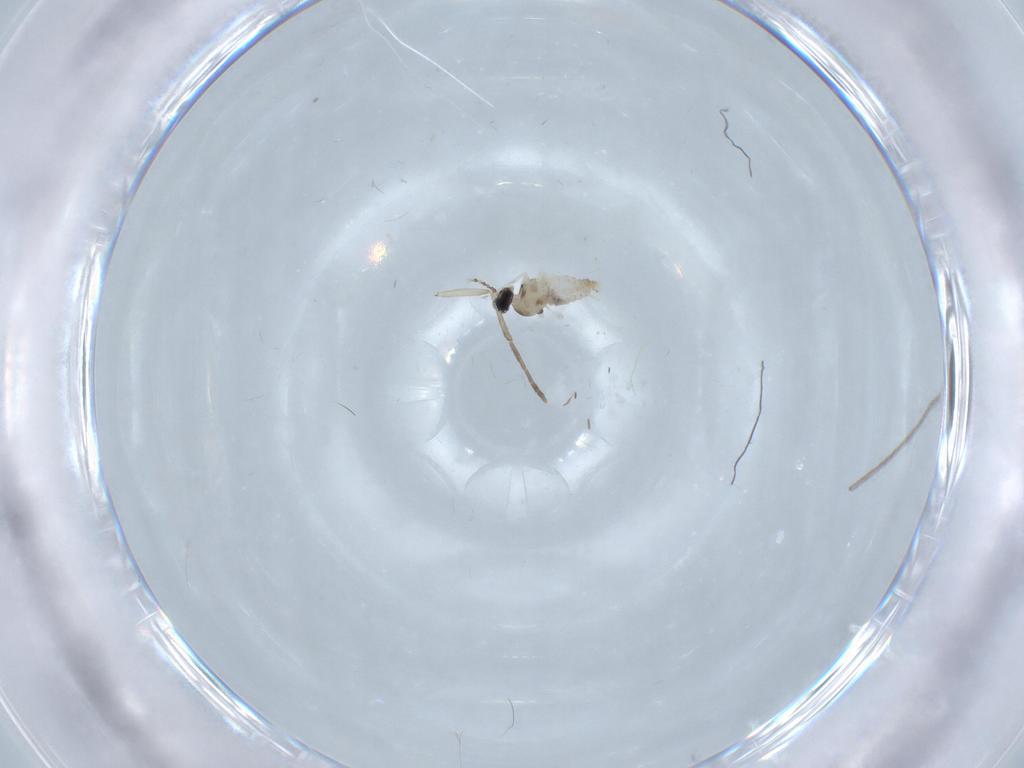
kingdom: Animalia
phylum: Arthropoda
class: Insecta
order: Diptera
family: Cecidomyiidae
